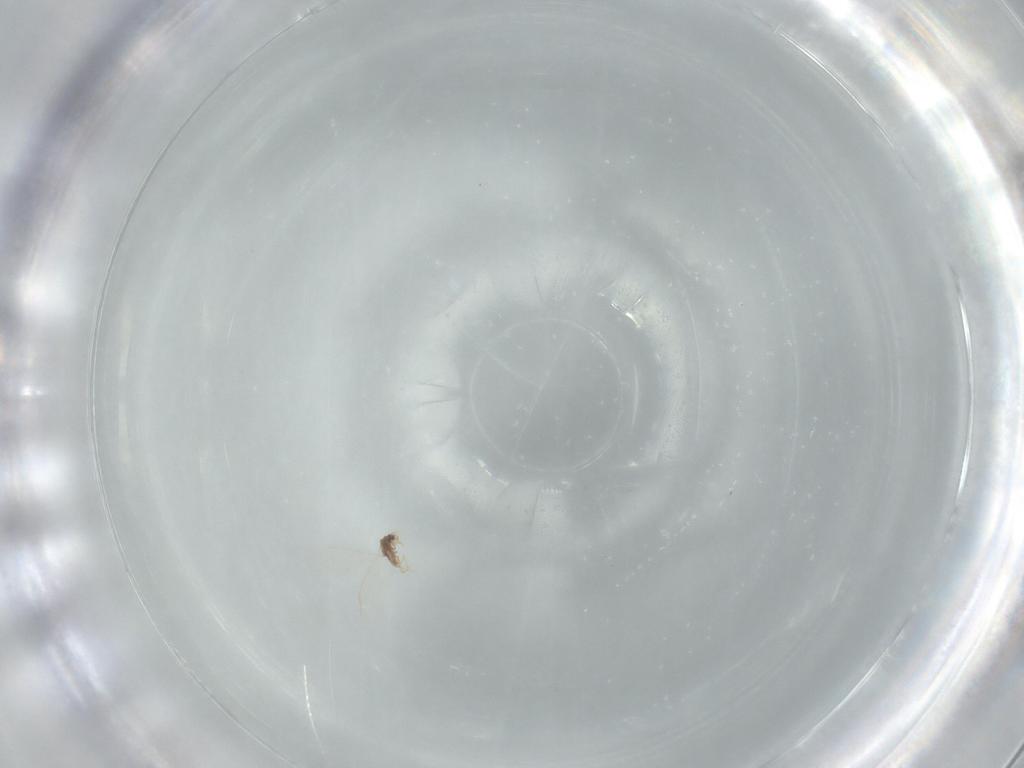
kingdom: Animalia
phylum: Arthropoda
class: Insecta
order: Hemiptera
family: Diaspididae
